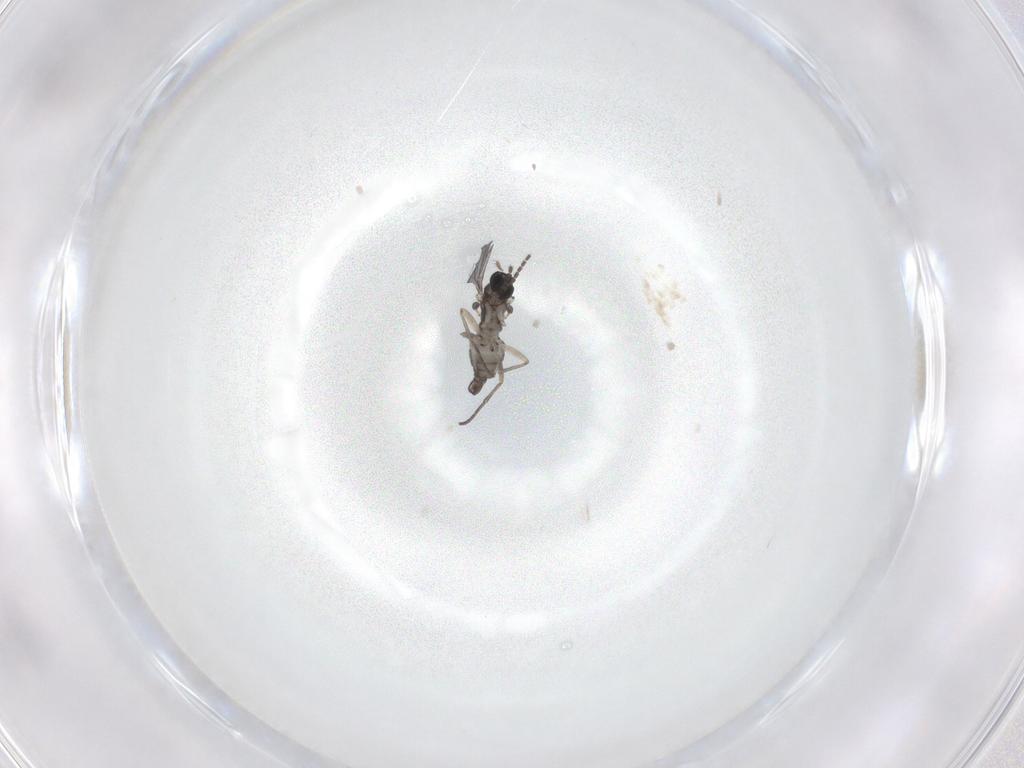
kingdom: Animalia
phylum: Arthropoda
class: Insecta
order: Diptera
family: Sciaridae
